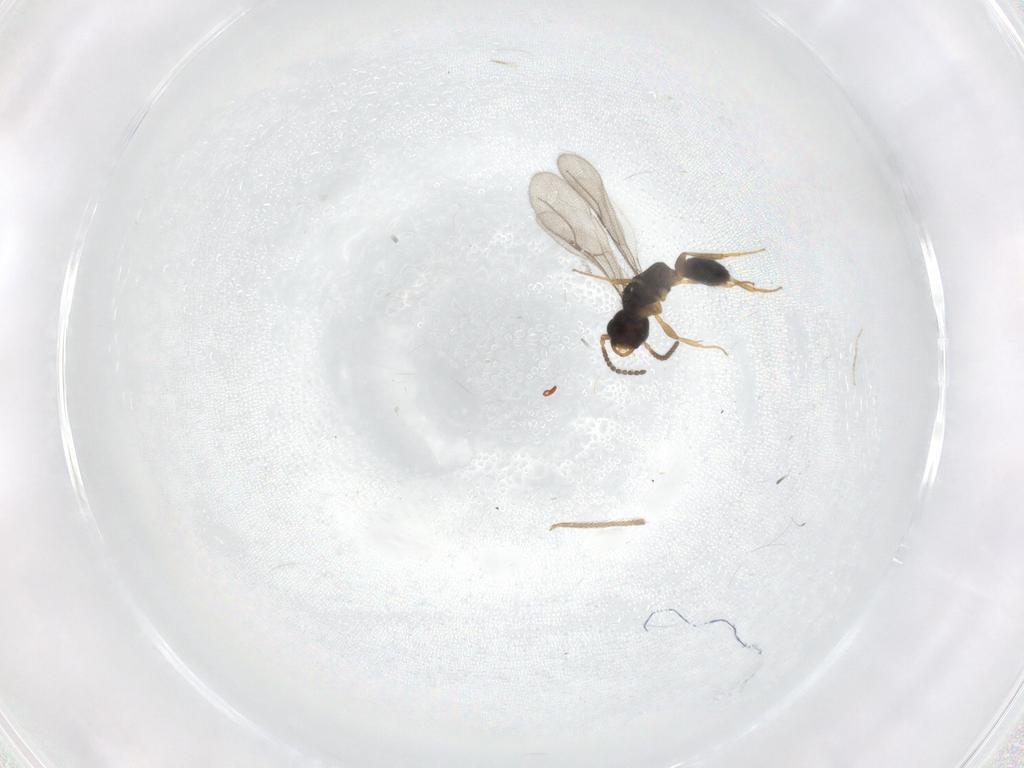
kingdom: Animalia
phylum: Arthropoda
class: Insecta
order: Hymenoptera
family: Bethylidae
